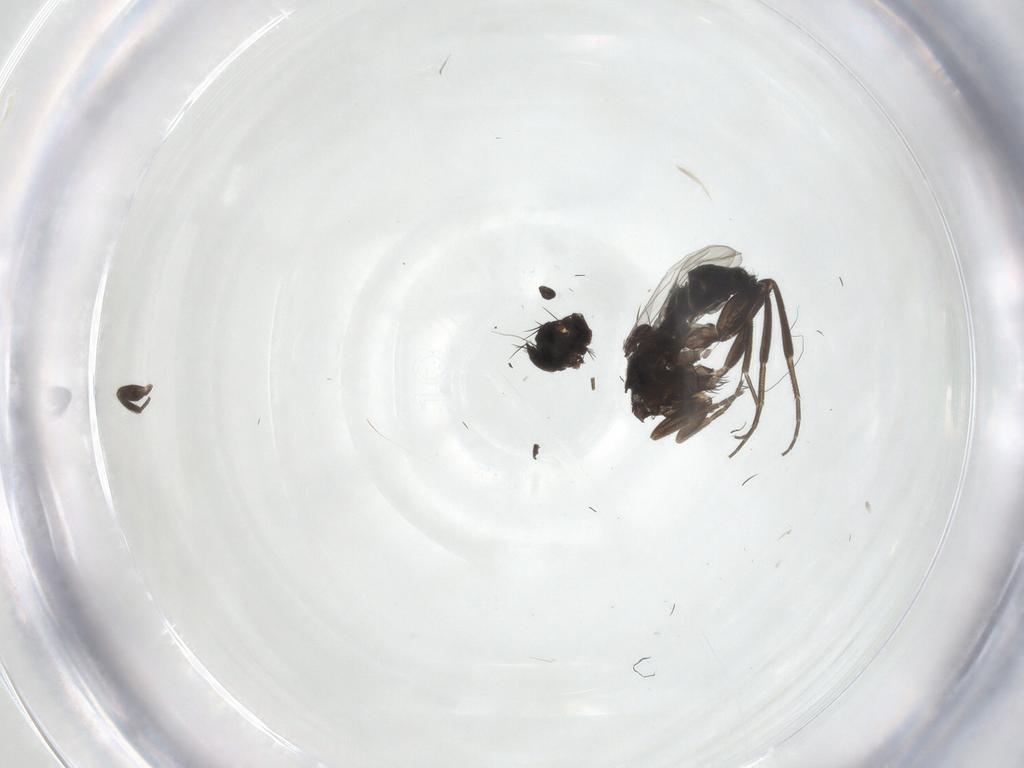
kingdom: Animalia
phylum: Arthropoda
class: Insecta
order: Diptera
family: Phoridae
